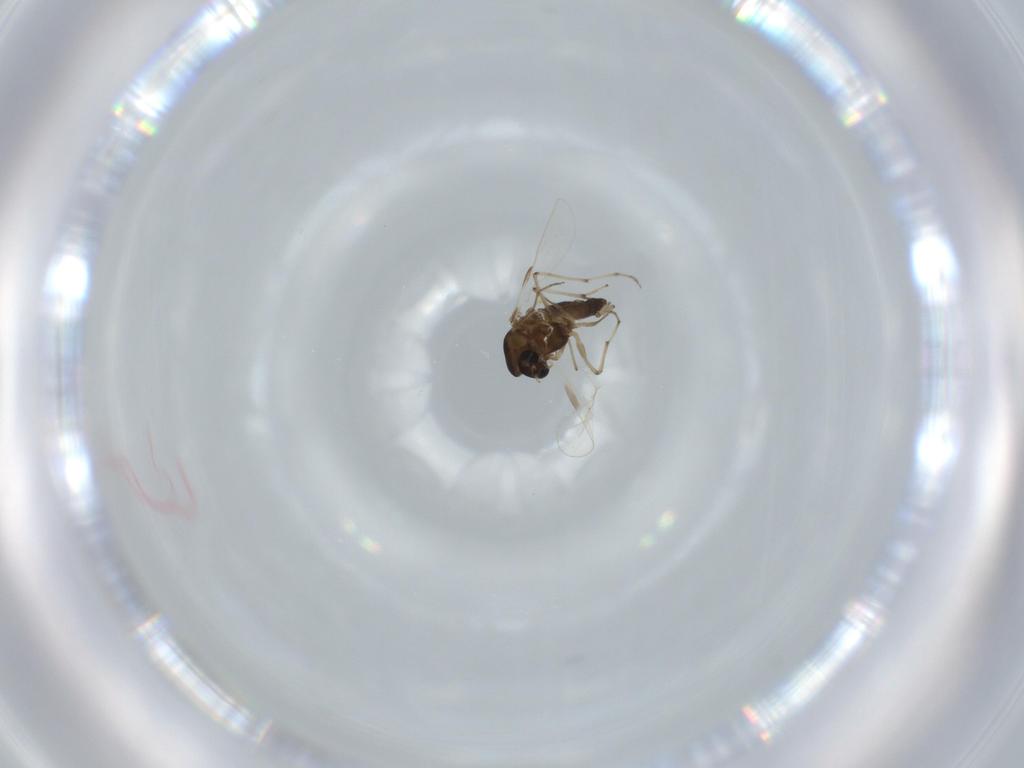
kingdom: Animalia
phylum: Arthropoda
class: Insecta
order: Diptera
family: Chironomidae
